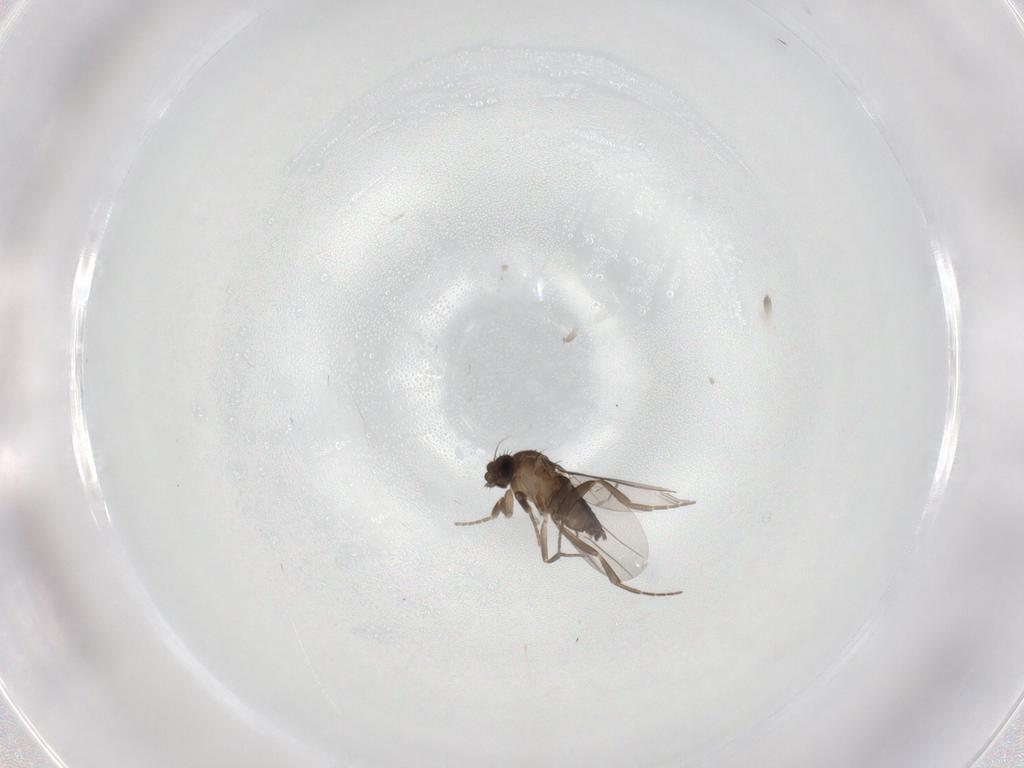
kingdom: Animalia
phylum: Arthropoda
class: Insecta
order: Diptera
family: Phoridae
